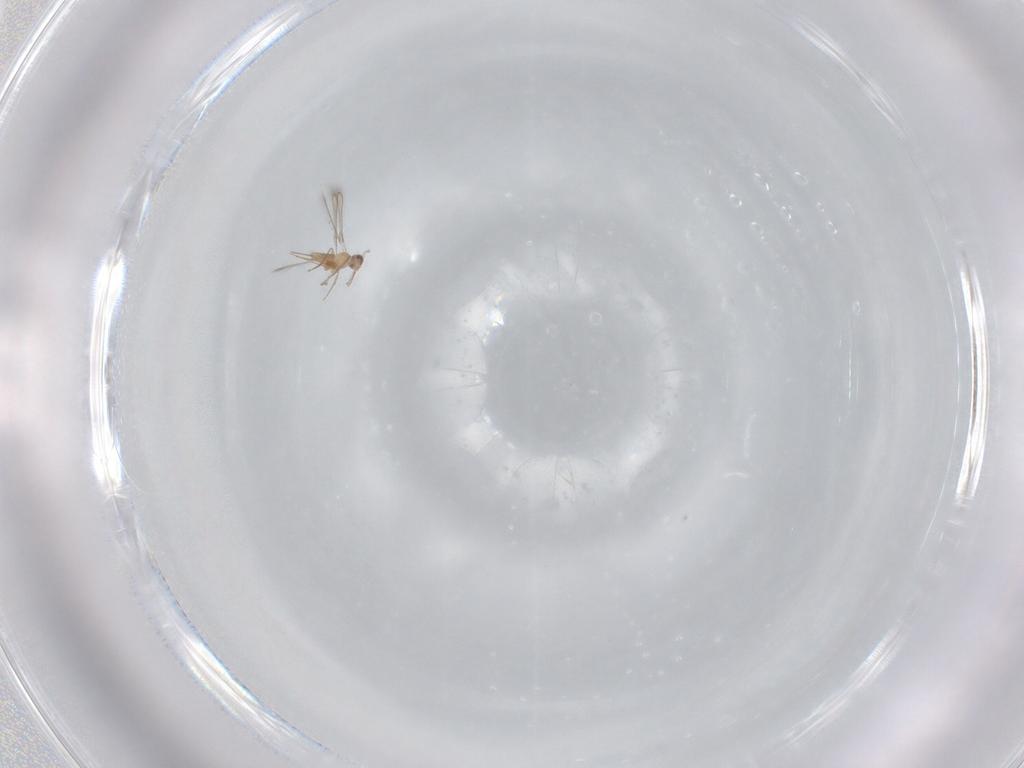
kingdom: Animalia
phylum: Arthropoda
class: Insecta
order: Hymenoptera
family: Mymaridae
